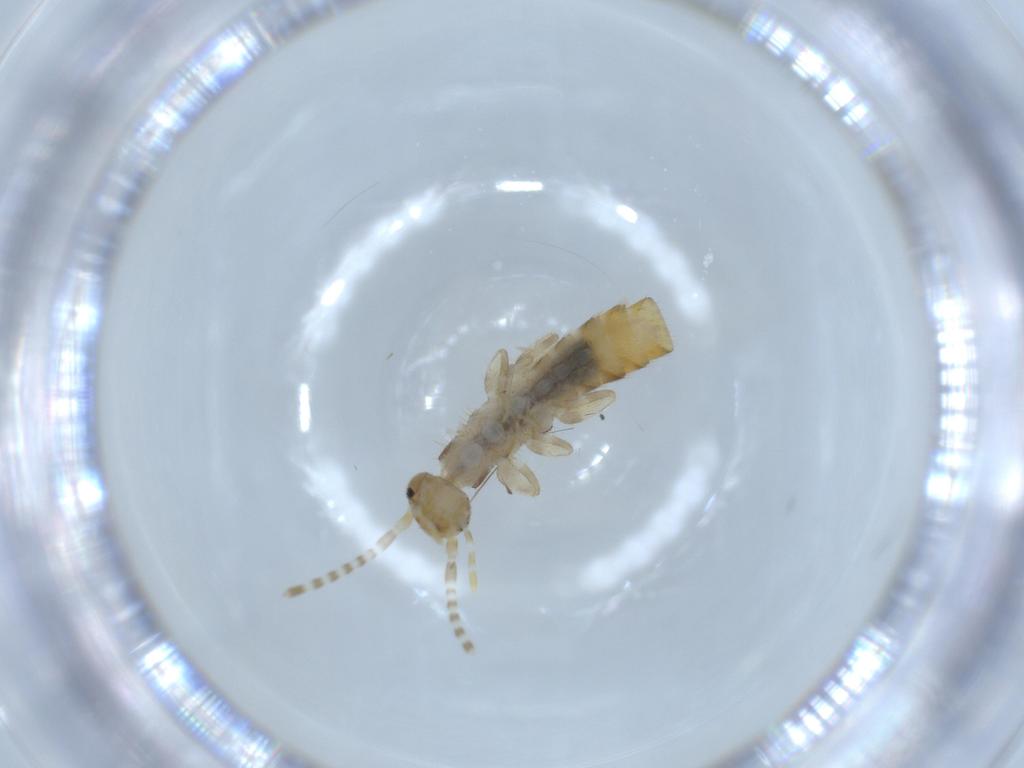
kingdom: Animalia
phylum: Arthropoda
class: Insecta
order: Dermaptera
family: Forficulidae
